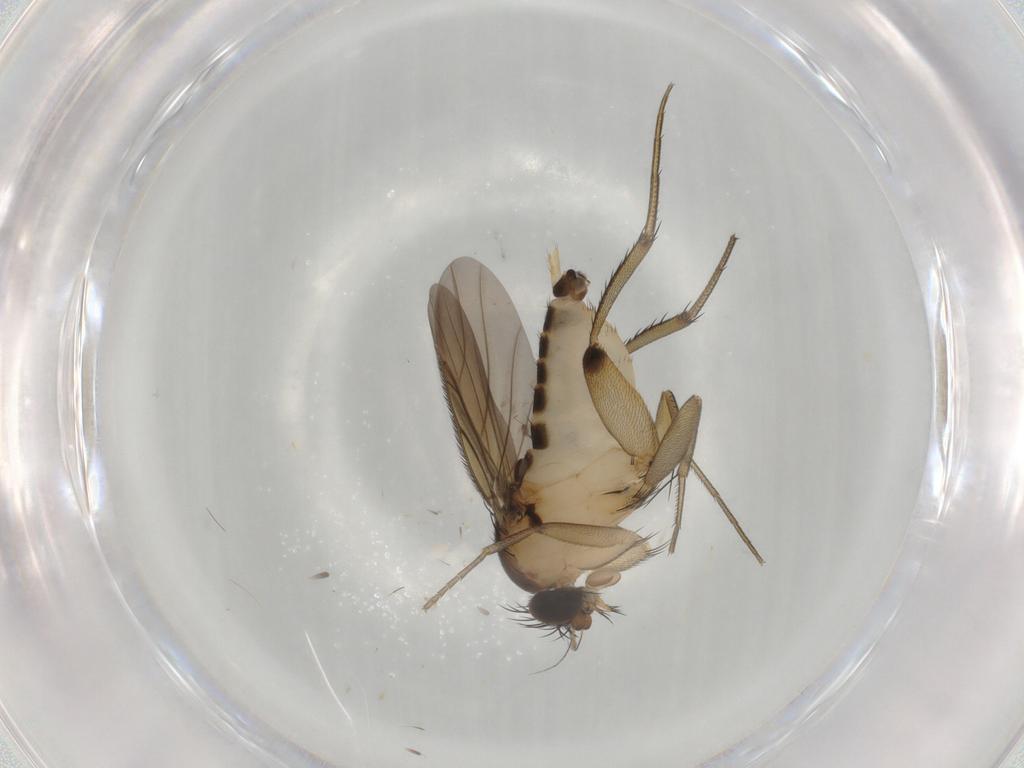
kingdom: Animalia
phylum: Arthropoda
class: Insecta
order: Diptera
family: Phoridae
